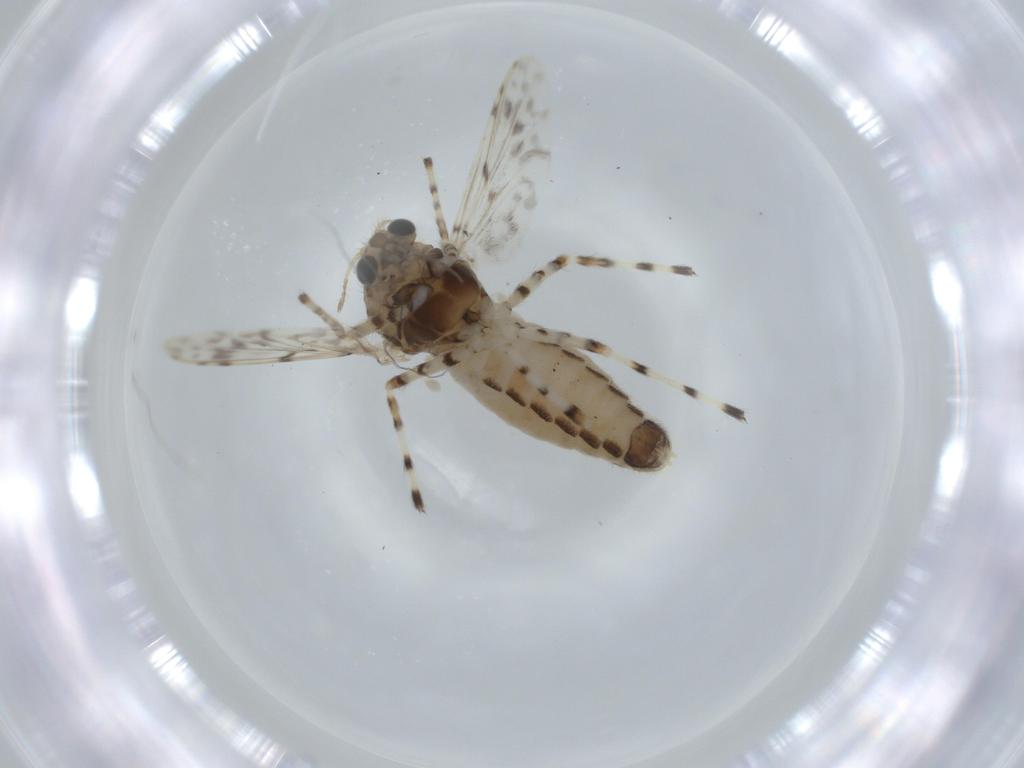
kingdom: Animalia
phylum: Arthropoda
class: Insecta
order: Diptera
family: Chironomidae
